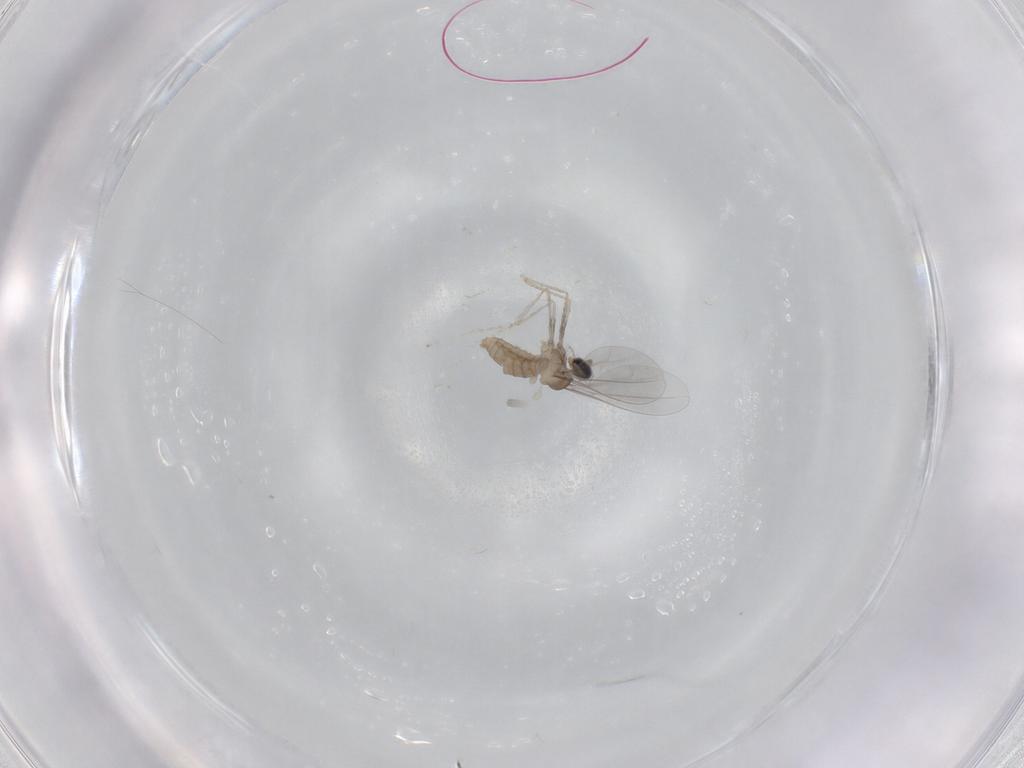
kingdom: Animalia
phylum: Arthropoda
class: Insecta
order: Diptera
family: Cecidomyiidae
